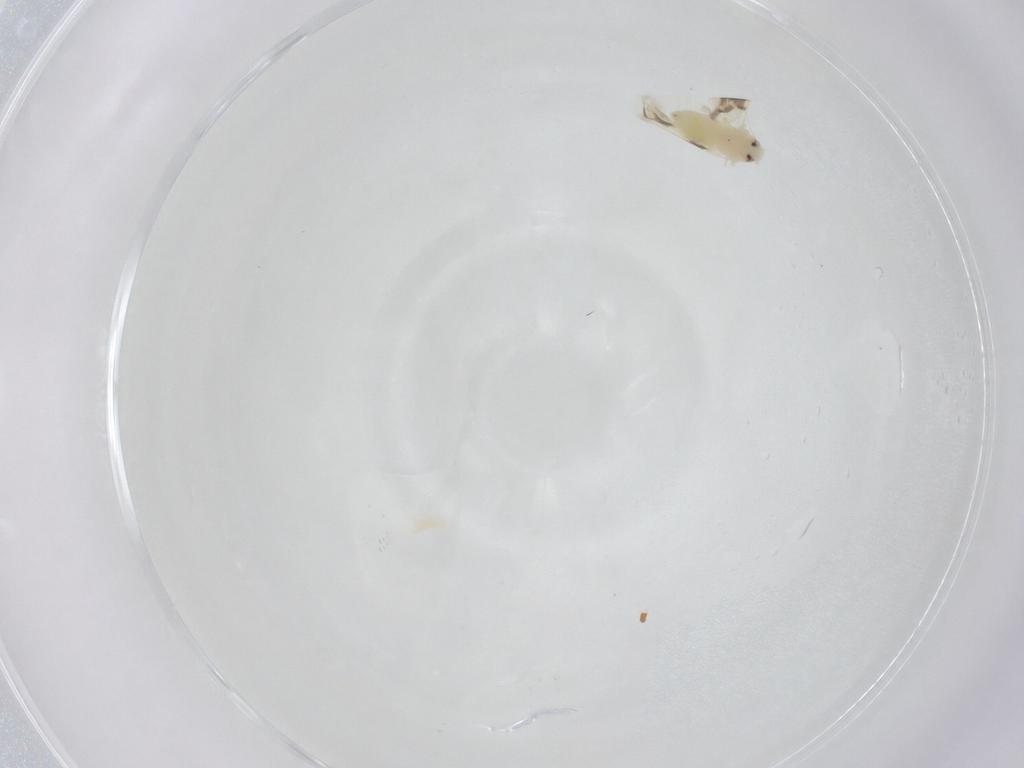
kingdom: Animalia
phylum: Arthropoda
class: Insecta
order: Hemiptera
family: Aleyrodidae
